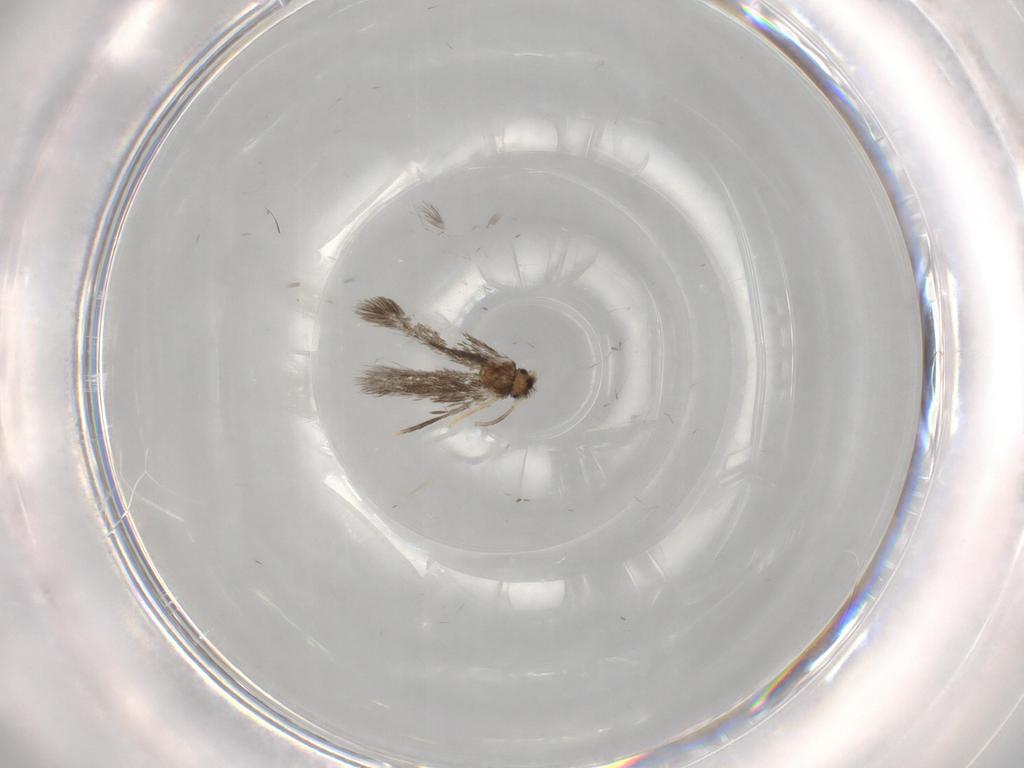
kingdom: Animalia
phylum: Arthropoda
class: Insecta
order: Lepidoptera
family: Nepticulidae
